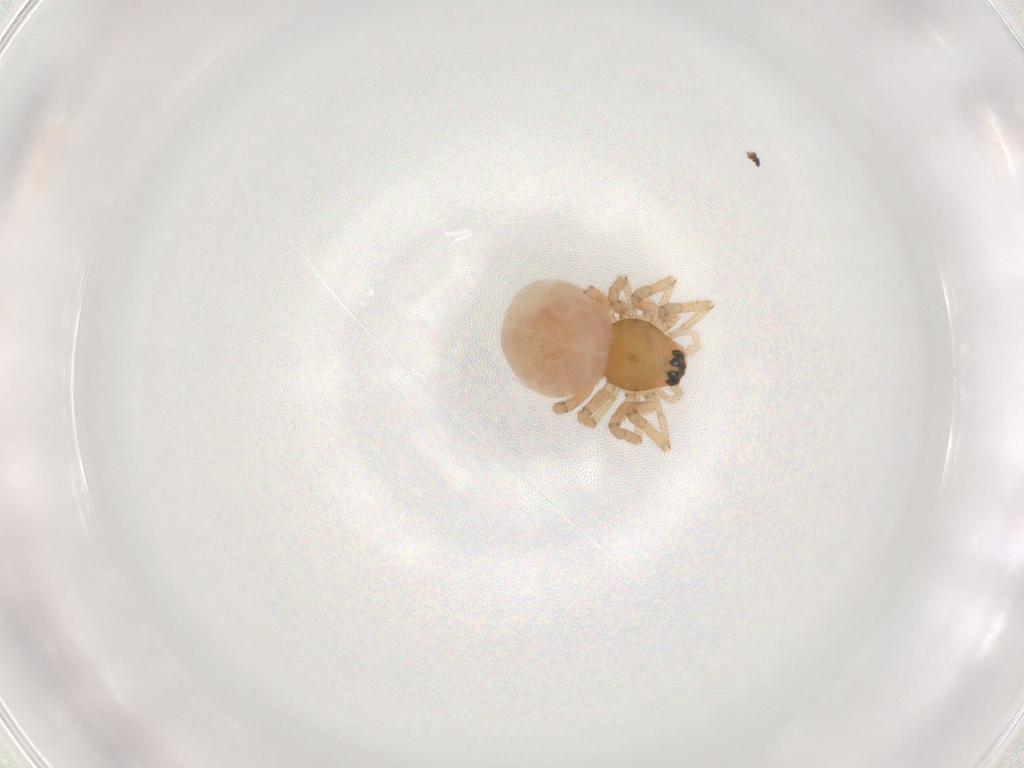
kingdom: Animalia
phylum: Arthropoda
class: Arachnida
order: Araneae
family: Linyphiidae
